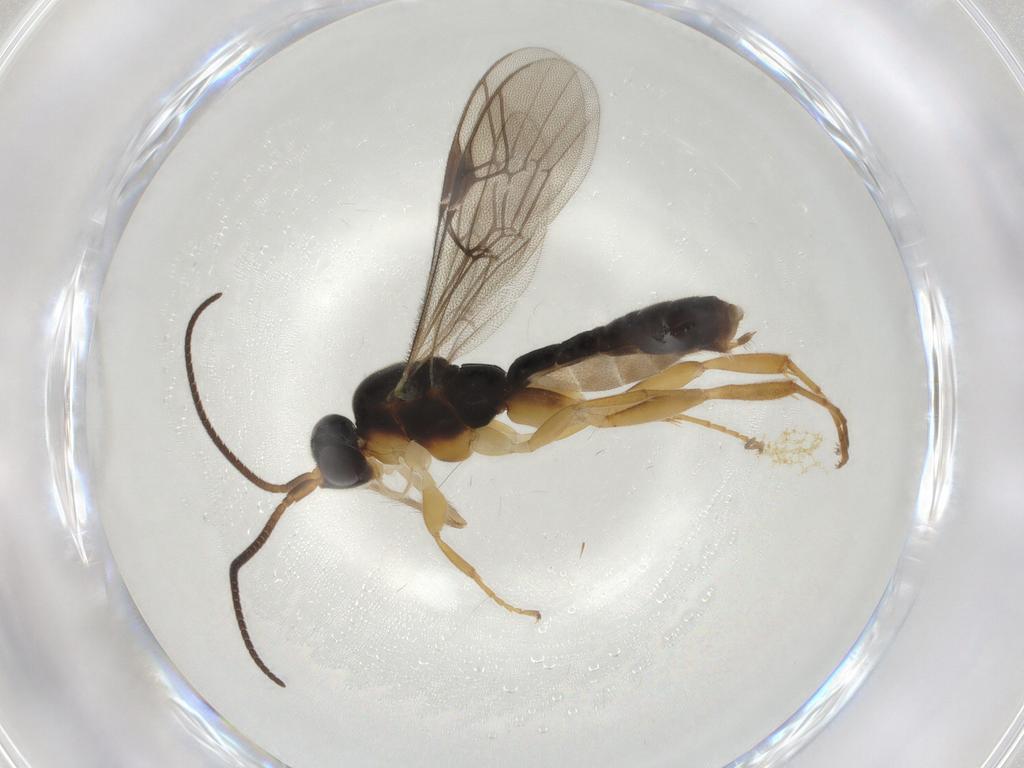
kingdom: Animalia
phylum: Arthropoda
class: Insecta
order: Hymenoptera
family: Ichneumonidae
